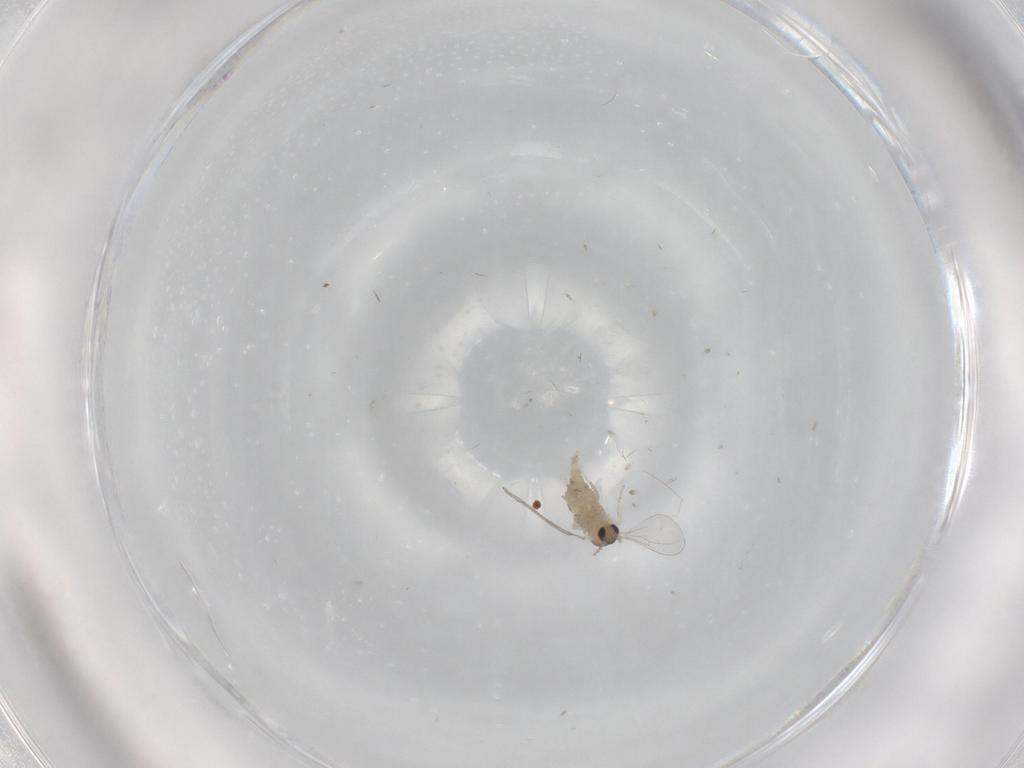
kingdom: Animalia
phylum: Arthropoda
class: Insecta
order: Diptera
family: Cecidomyiidae
